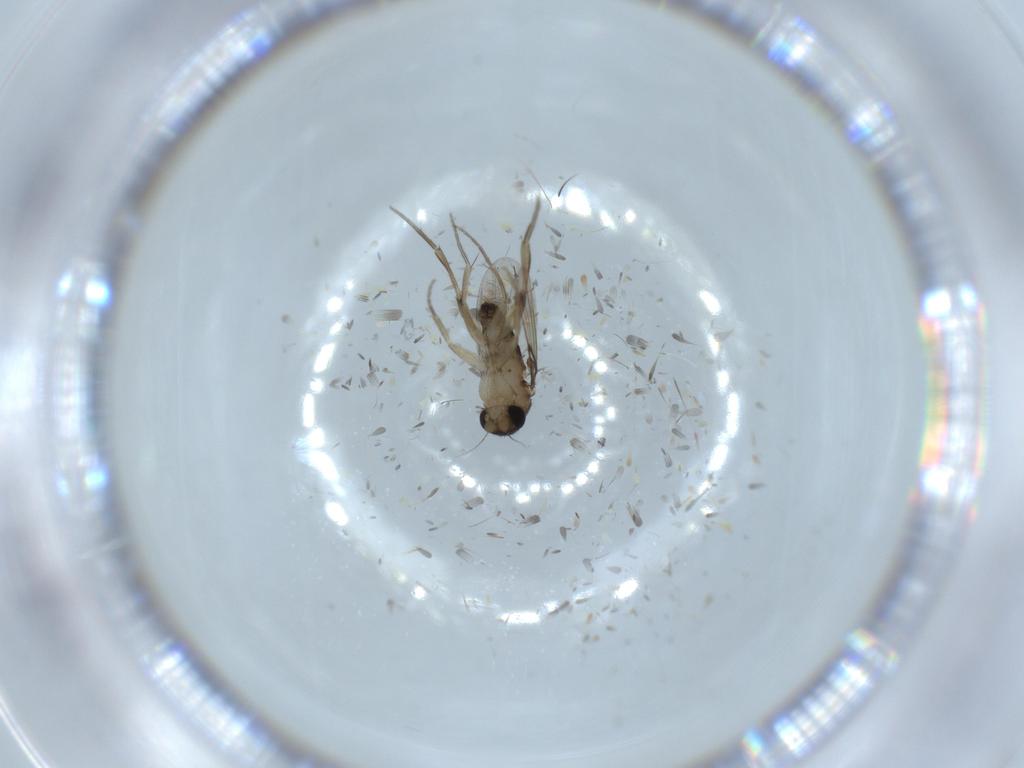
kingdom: Animalia
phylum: Arthropoda
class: Insecta
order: Diptera
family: Phoridae
